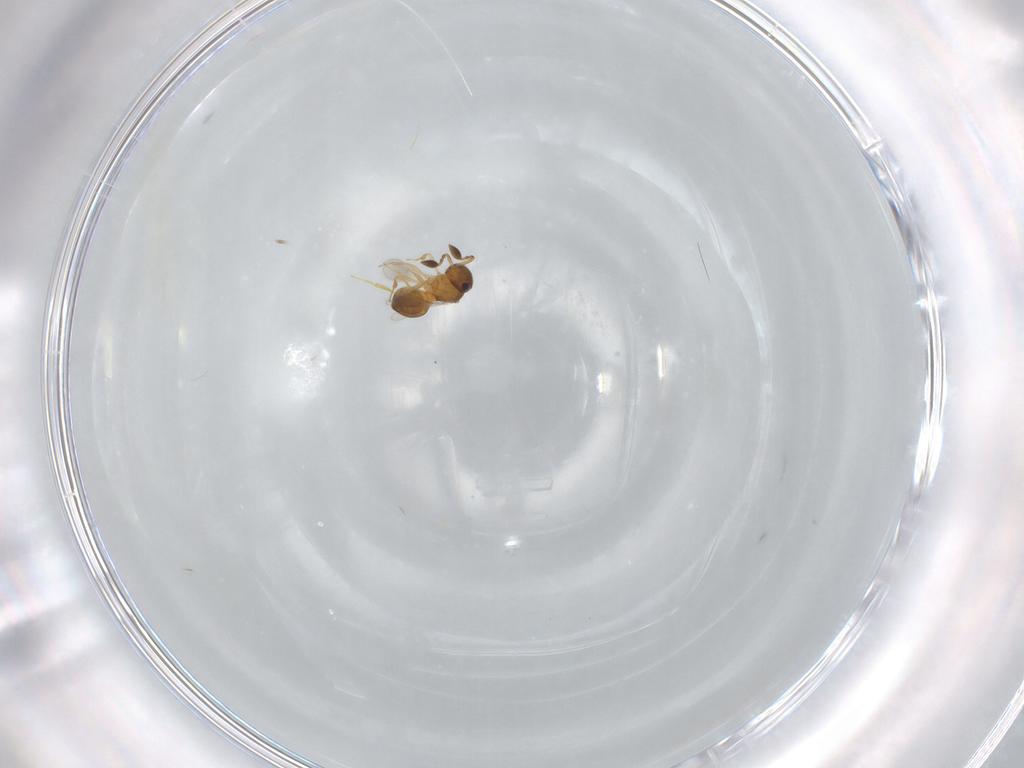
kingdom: Animalia
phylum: Arthropoda
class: Insecta
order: Hymenoptera
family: Scelionidae
